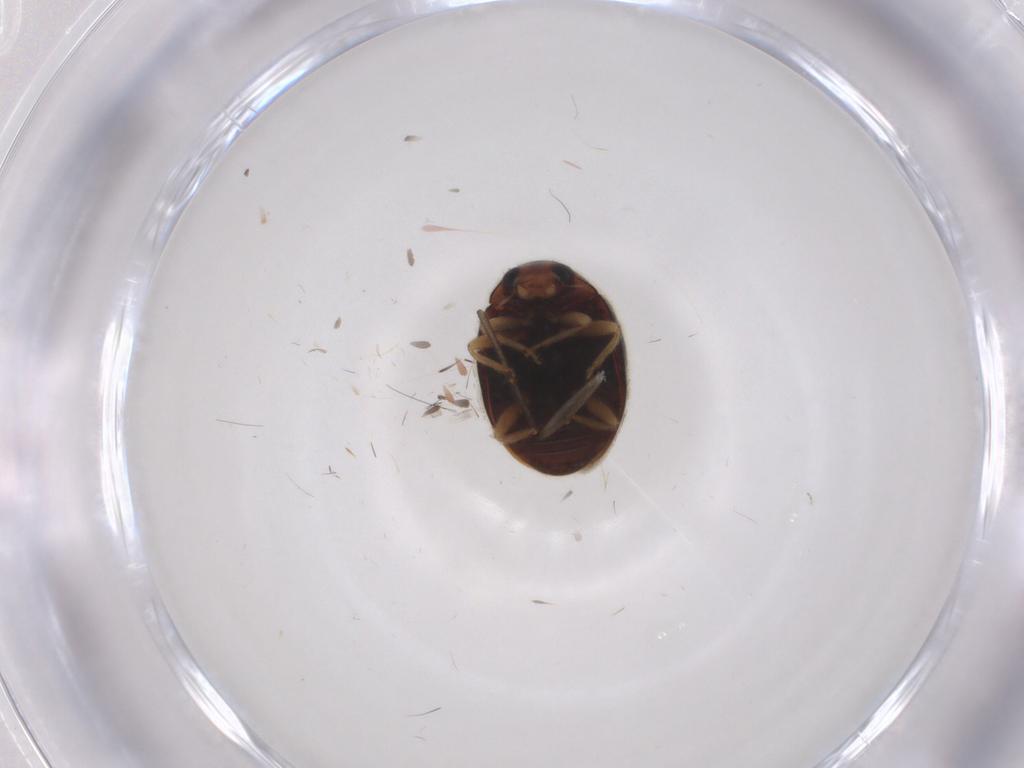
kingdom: Animalia
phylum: Arthropoda
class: Insecta
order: Coleoptera
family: Coccinellidae
